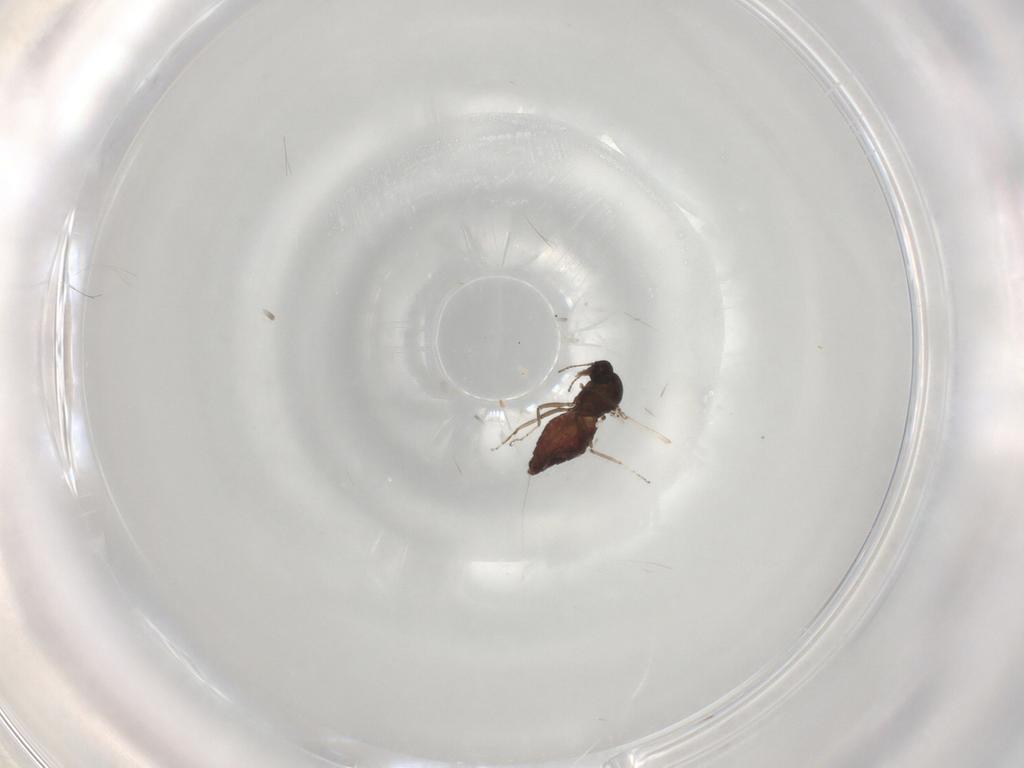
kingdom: Animalia
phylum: Arthropoda
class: Insecta
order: Diptera
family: Ceratopogonidae
